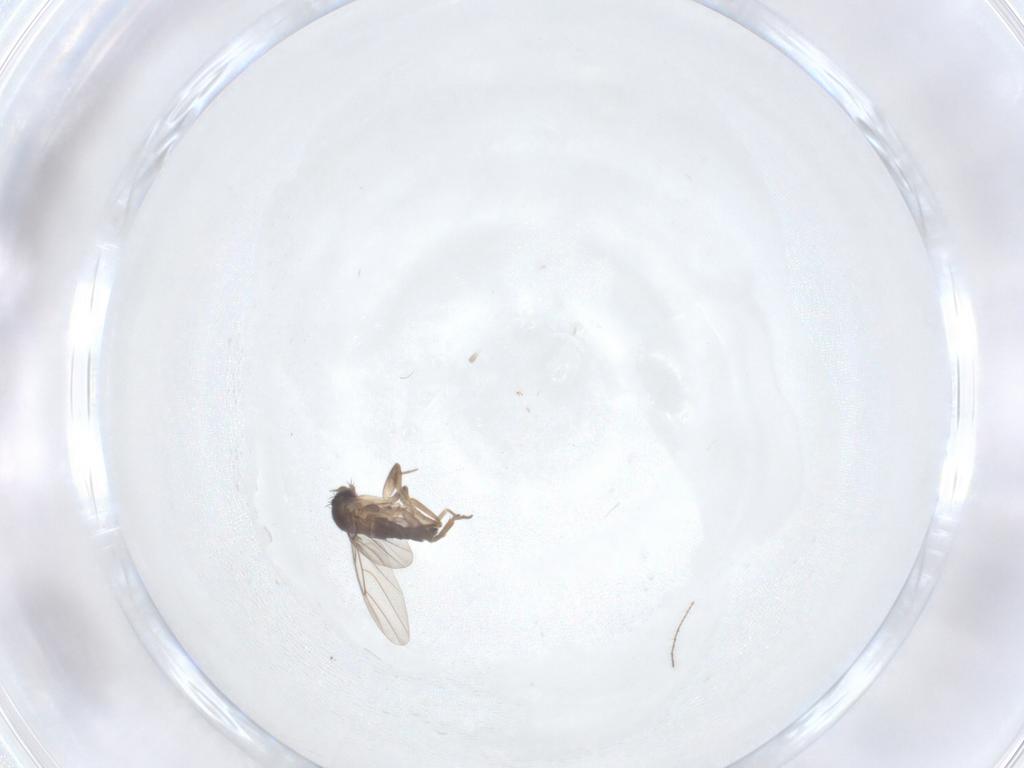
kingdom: Animalia
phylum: Arthropoda
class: Insecta
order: Diptera
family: Phoridae
